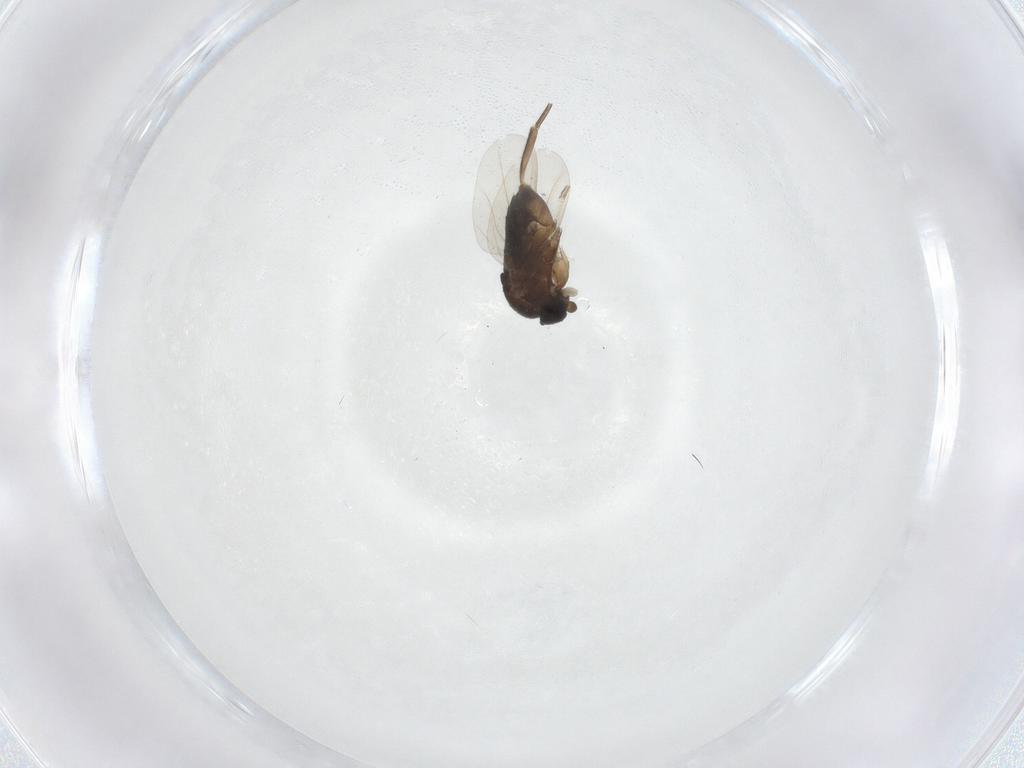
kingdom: Animalia
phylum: Arthropoda
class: Insecta
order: Diptera
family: Phoridae
